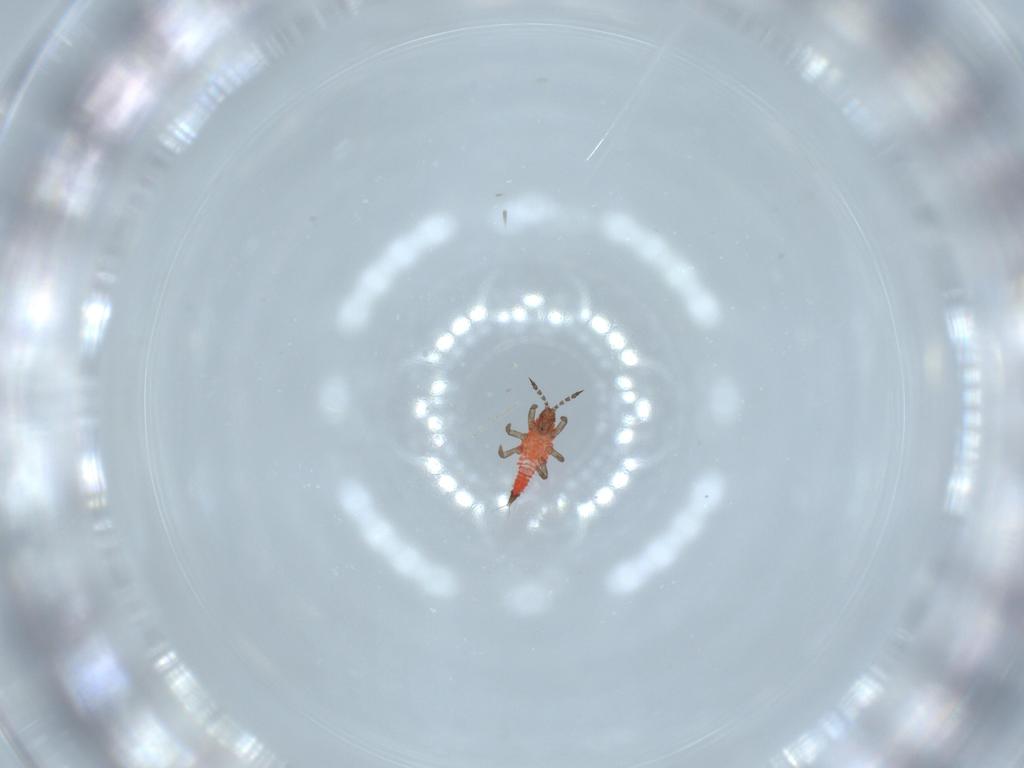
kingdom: Animalia
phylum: Arthropoda
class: Insecta
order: Thysanoptera
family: Phlaeothripidae
